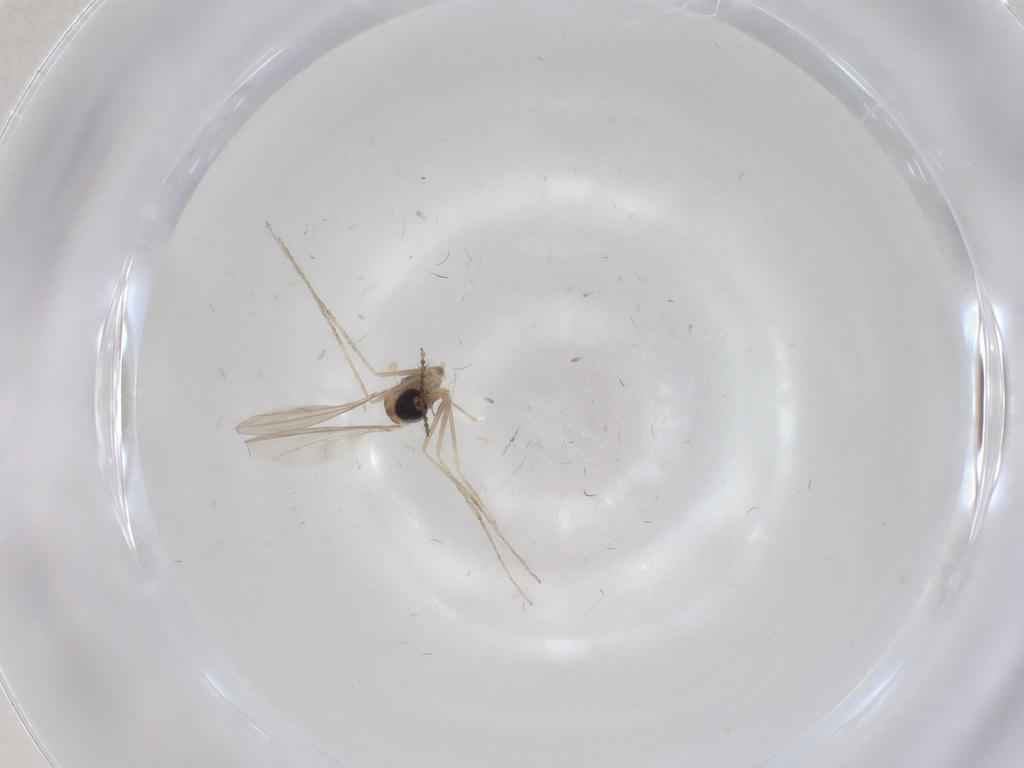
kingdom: Animalia
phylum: Arthropoda
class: Insecta
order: Diptera
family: Cecidomyiidae
